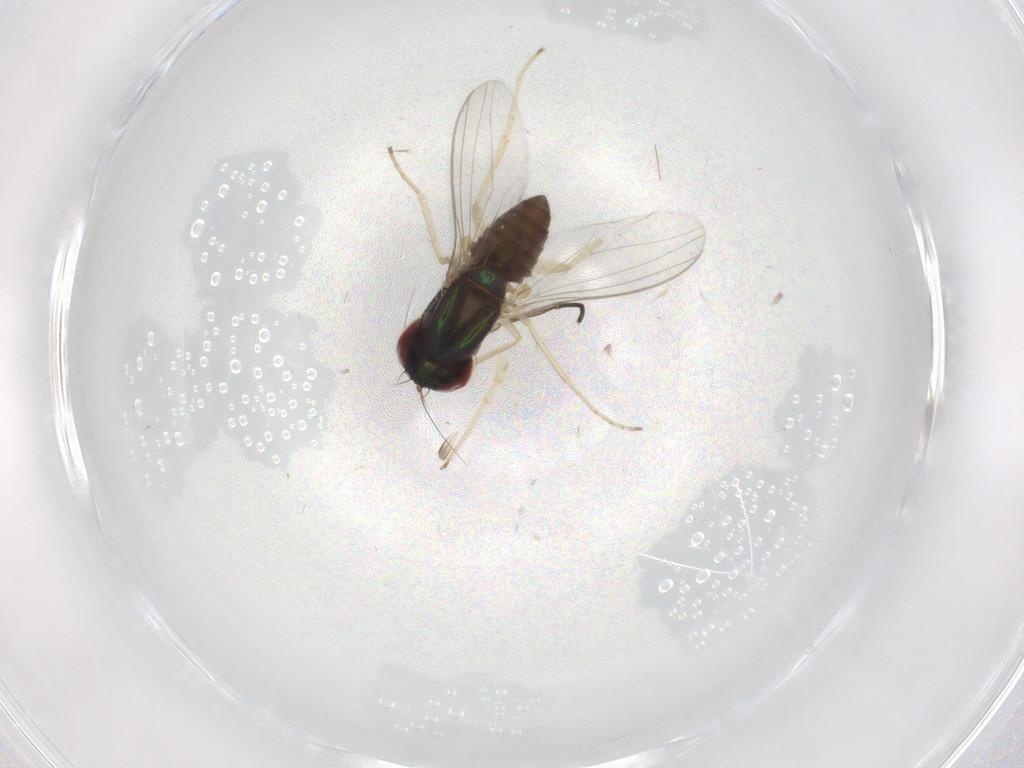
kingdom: Animalia
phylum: Arthropoda
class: Insecta
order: Diptera
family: Dolichopodidae
